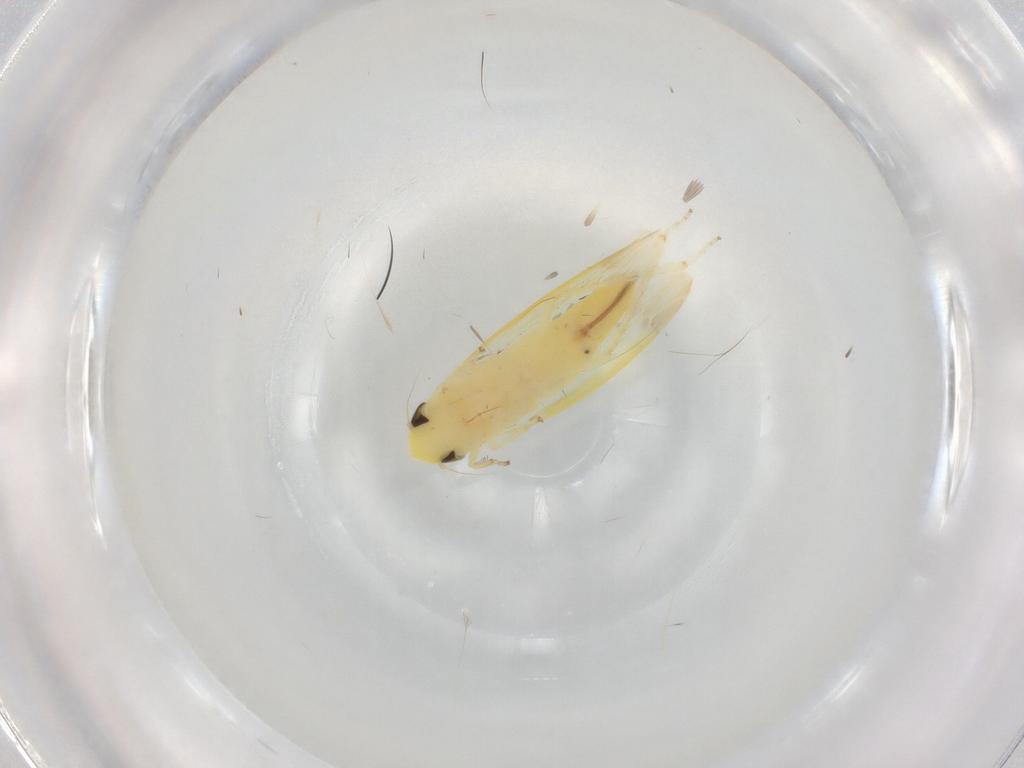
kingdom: Animalia
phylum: Arthropoda
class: Insecta
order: Hemiptera
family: Cicadellidae
